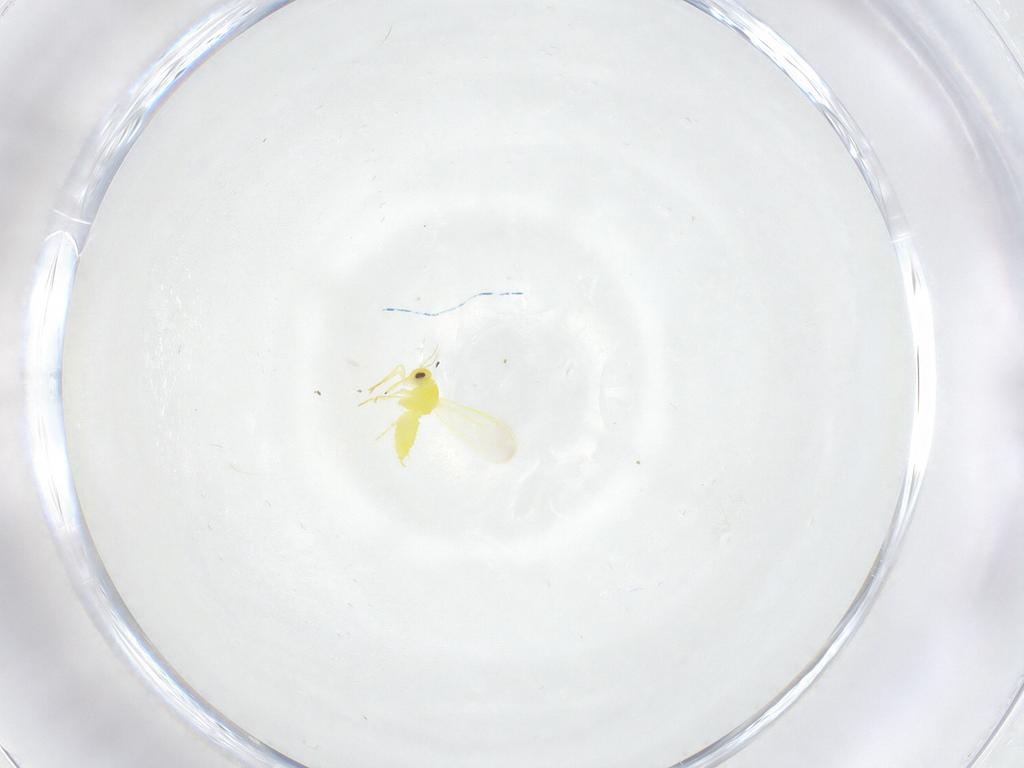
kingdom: Animalia
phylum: Arthropoda
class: Insecta
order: Hemiptera
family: Aleyrodidae
